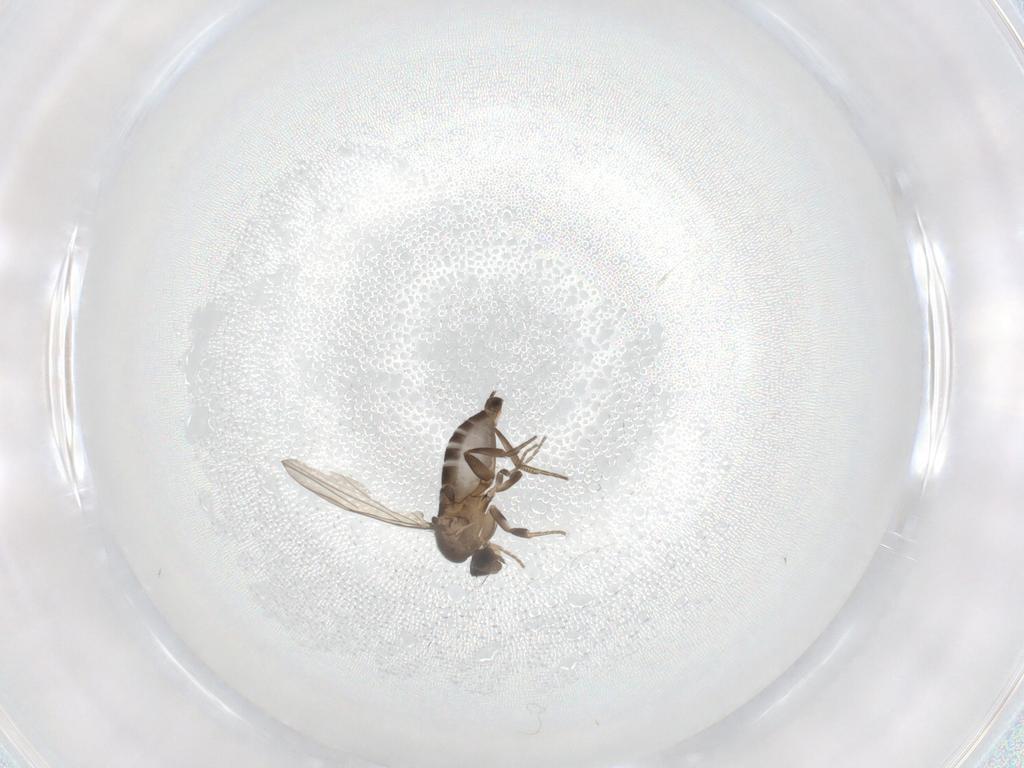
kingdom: Animalia
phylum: Arthropoda
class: Insecta
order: Diptera
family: Phoridae
